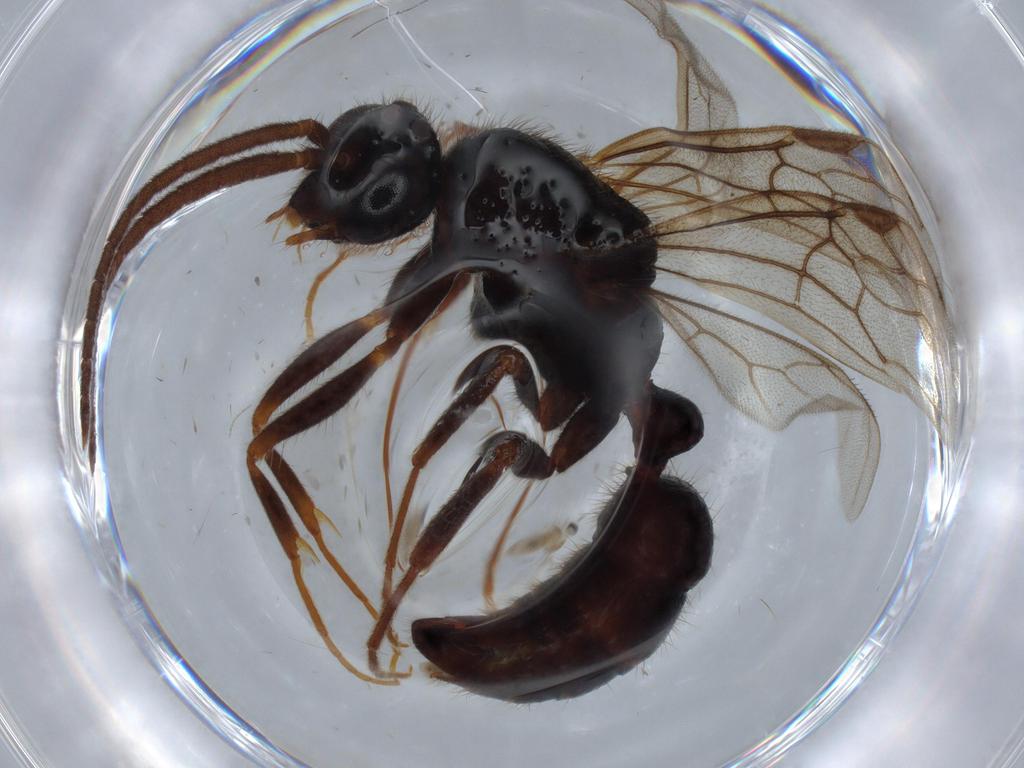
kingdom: Animalia
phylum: Arthropoda
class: Insecta
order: Hymenoptera
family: Formicidae
